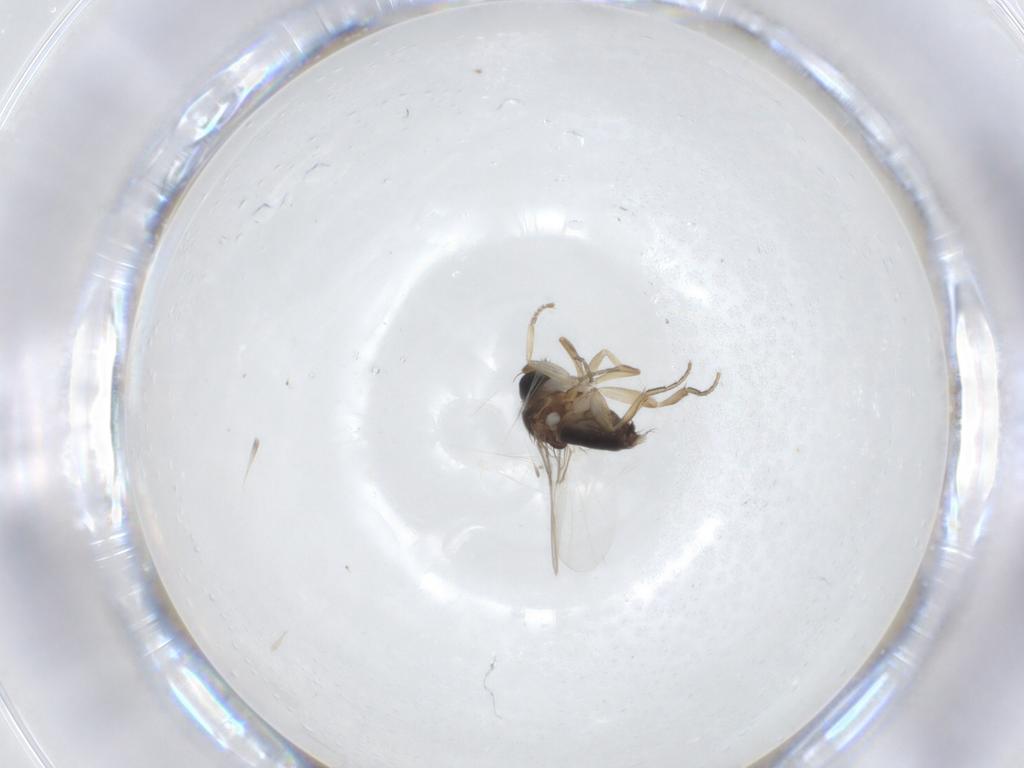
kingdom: Animalia
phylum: Arthropoda
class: Insecta
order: Diptera
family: Phoridae
